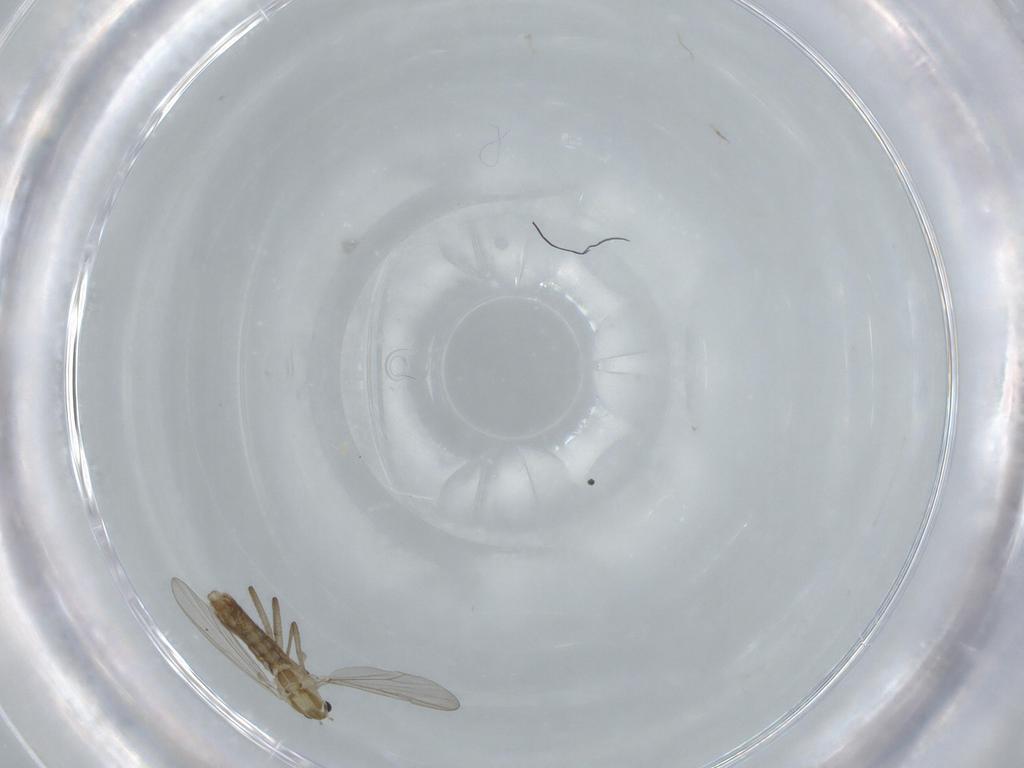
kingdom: Animalia
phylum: Arthropoda
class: Insecta
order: Diptera
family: Chironomidae
